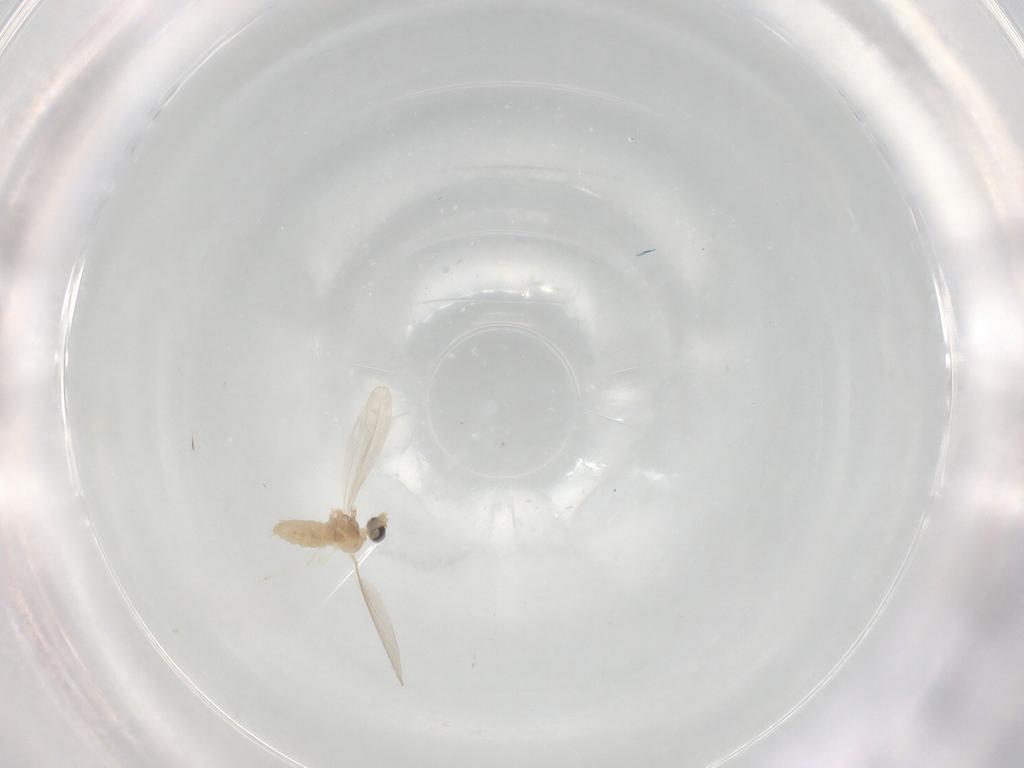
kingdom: Animalia
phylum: Arthropoda
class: Insecta
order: Diptera
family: Cecidomyiidae
